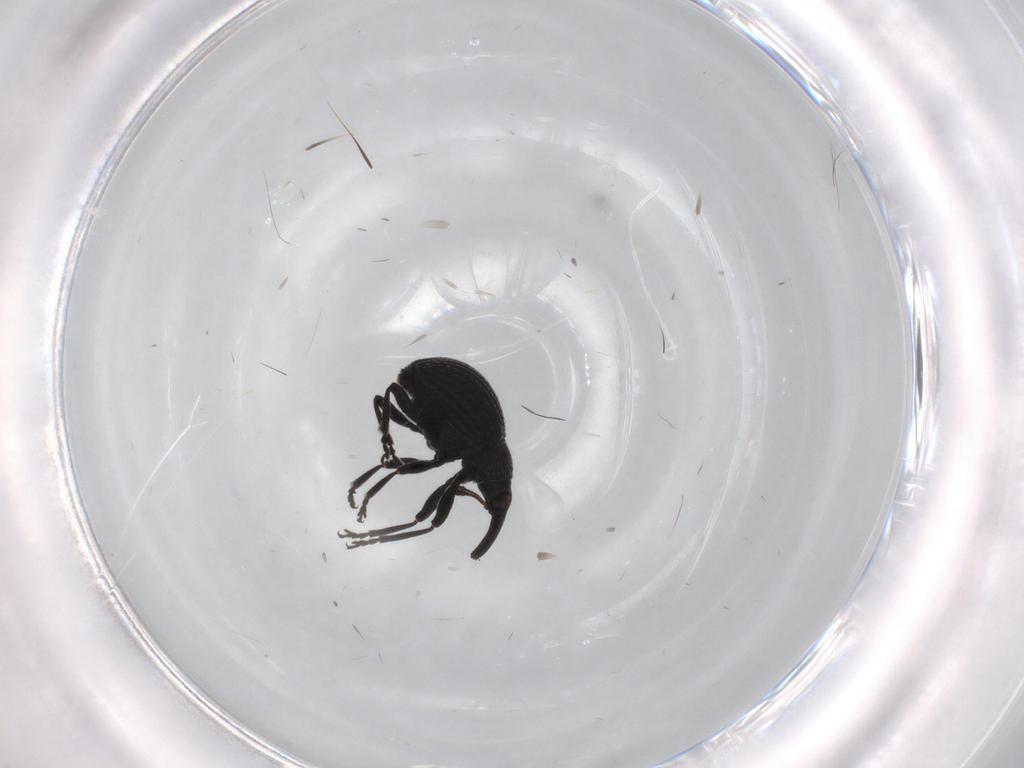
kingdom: Animalia
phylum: Arthropoda
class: Insecta
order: Coleoptera
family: Brentidae
